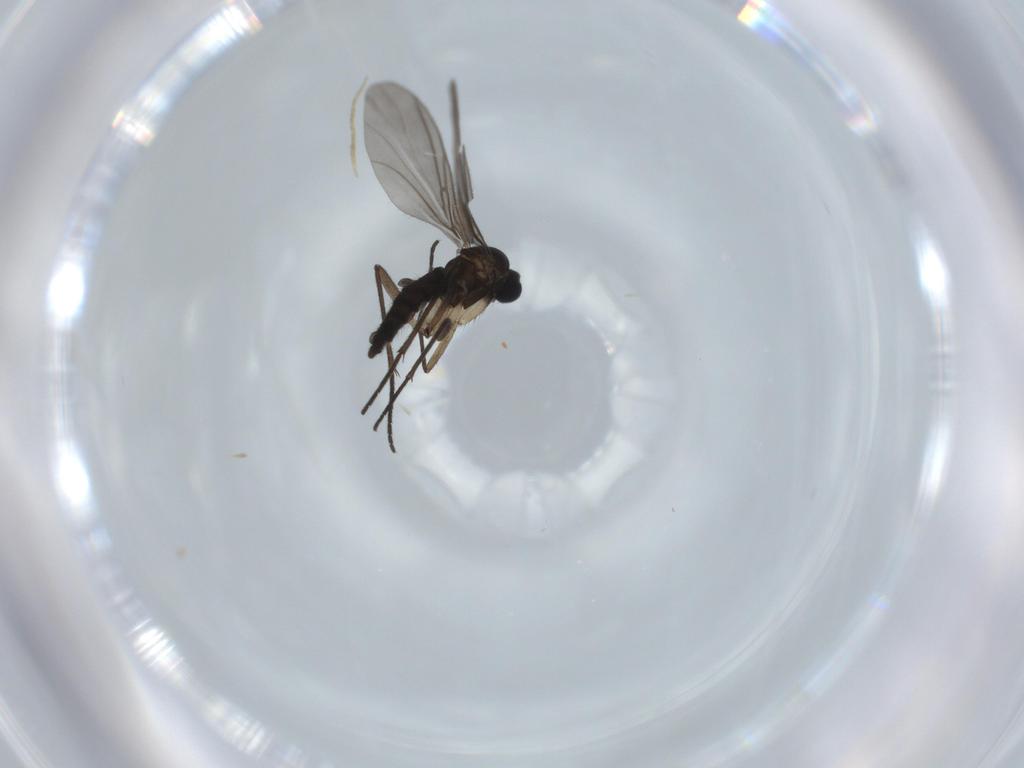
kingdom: Animalia
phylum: Arthropoda
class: Insecta
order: Diptera
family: Sciaridae
